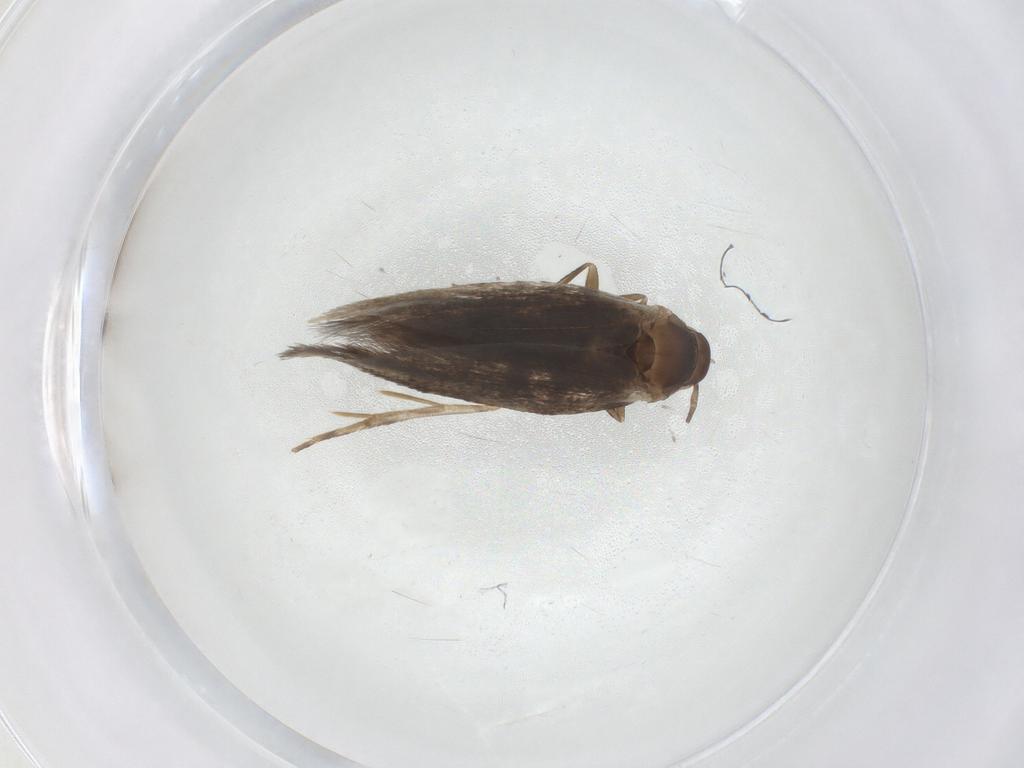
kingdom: Animalia
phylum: Arthropoda
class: Insecta
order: Lepidoptera
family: Elachistidae
